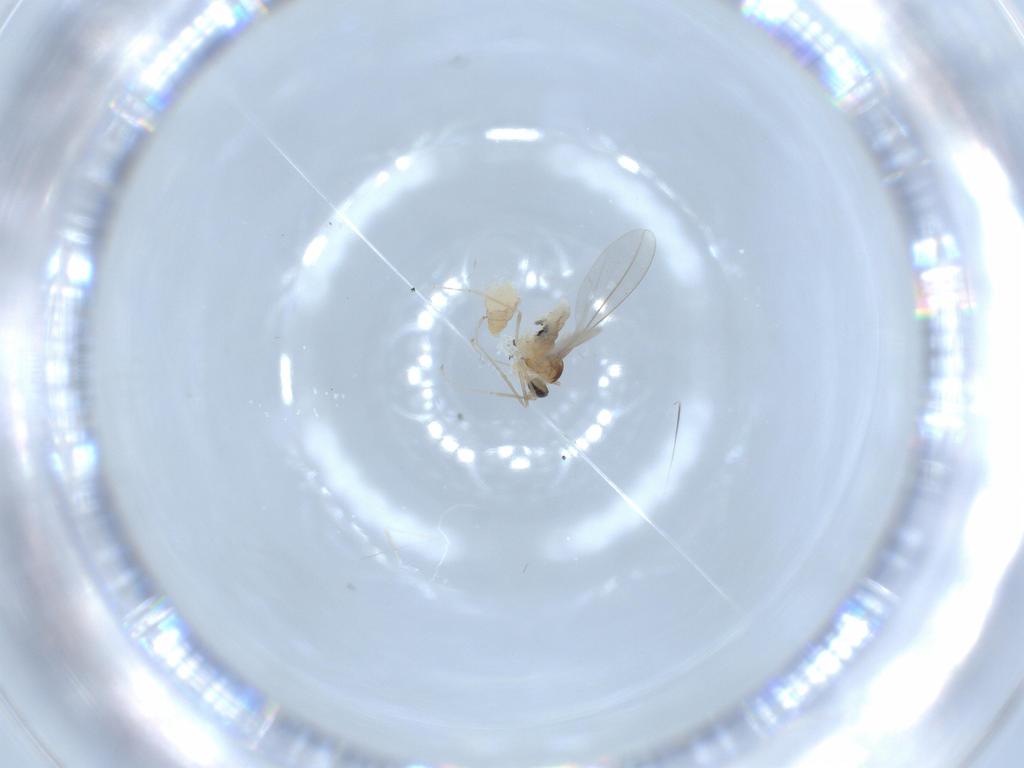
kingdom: Animalia
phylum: Arthropoda
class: Insecta
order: Diptera
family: Cecidomyiidae
